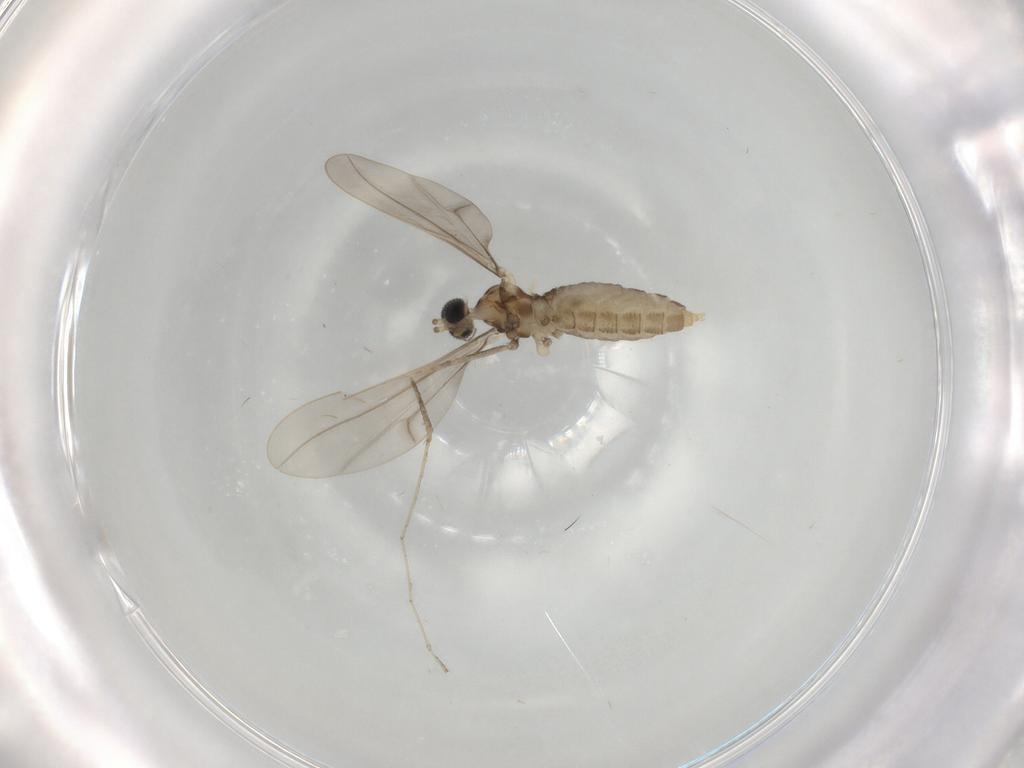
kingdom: Animalia
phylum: Arthropoda
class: Insecta
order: Diptera
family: Cecidomyiidae
